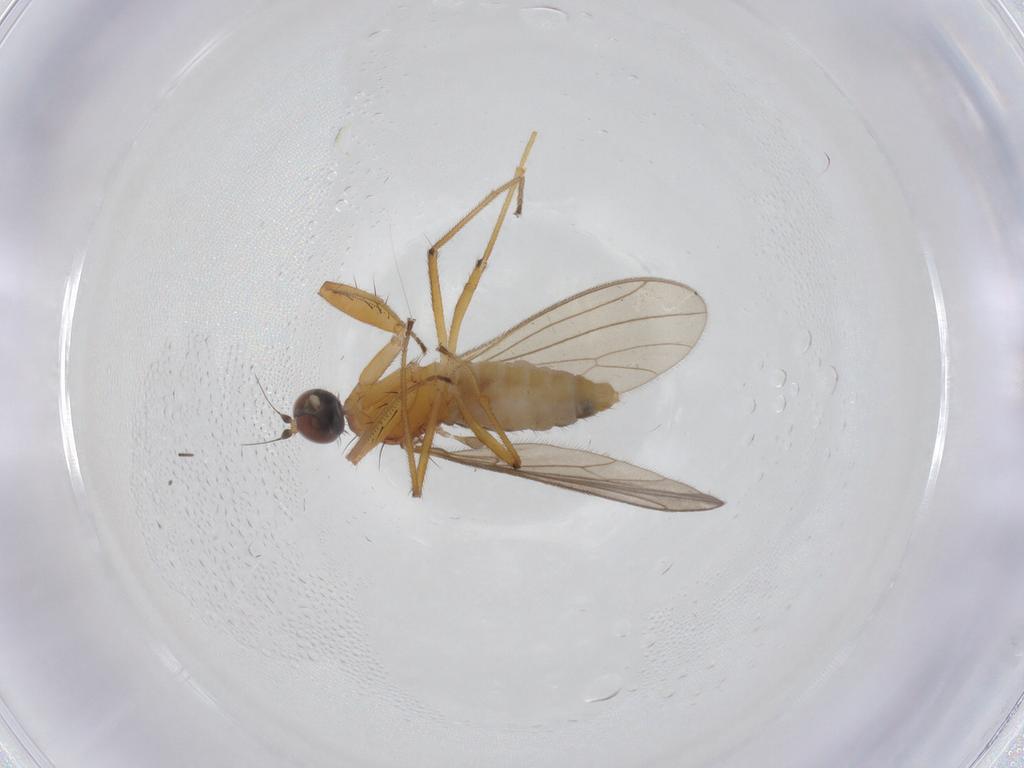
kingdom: Animalia
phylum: Arthropoda
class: Insecta
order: Diptera
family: Empididae
